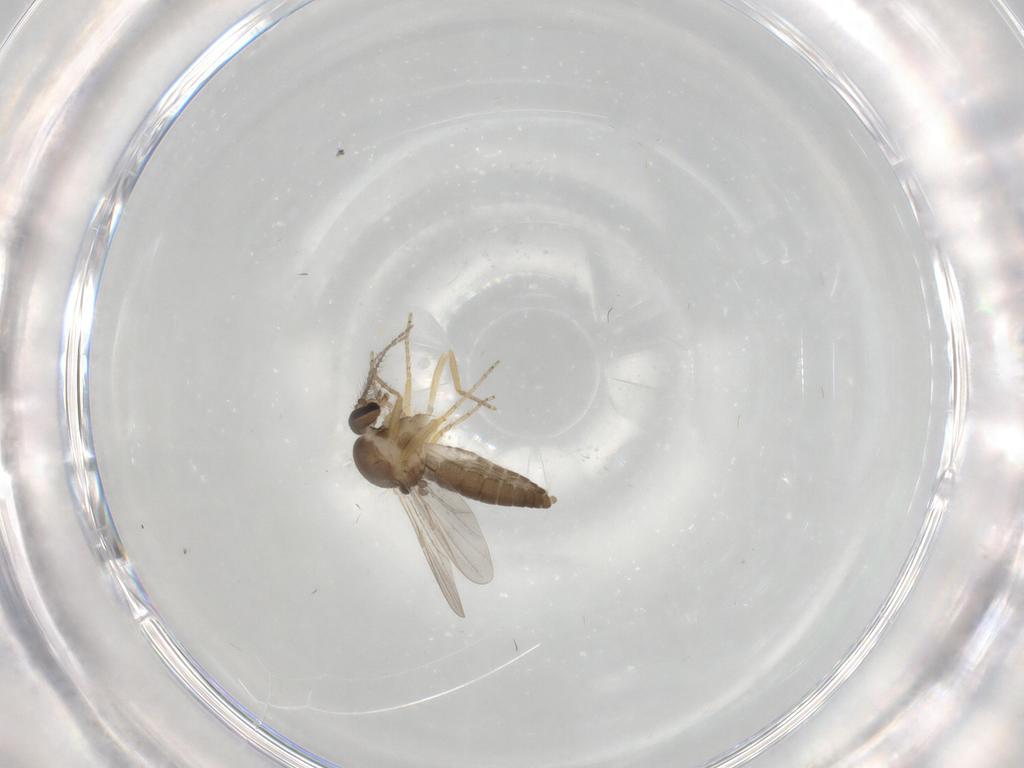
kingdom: Animalia
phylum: Arthropoda
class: Insecta
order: Diptera
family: Ceratopogonidae
